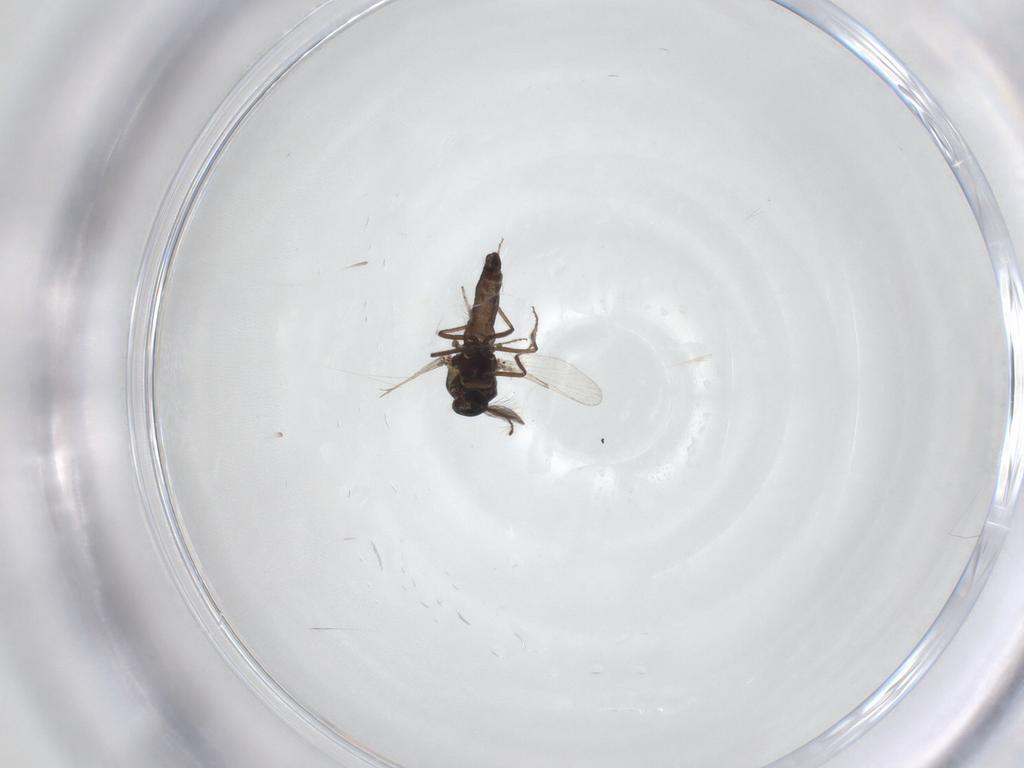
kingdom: Animalia
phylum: Arthropoda
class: Insecta
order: Diptera
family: Ceratopogonidae
